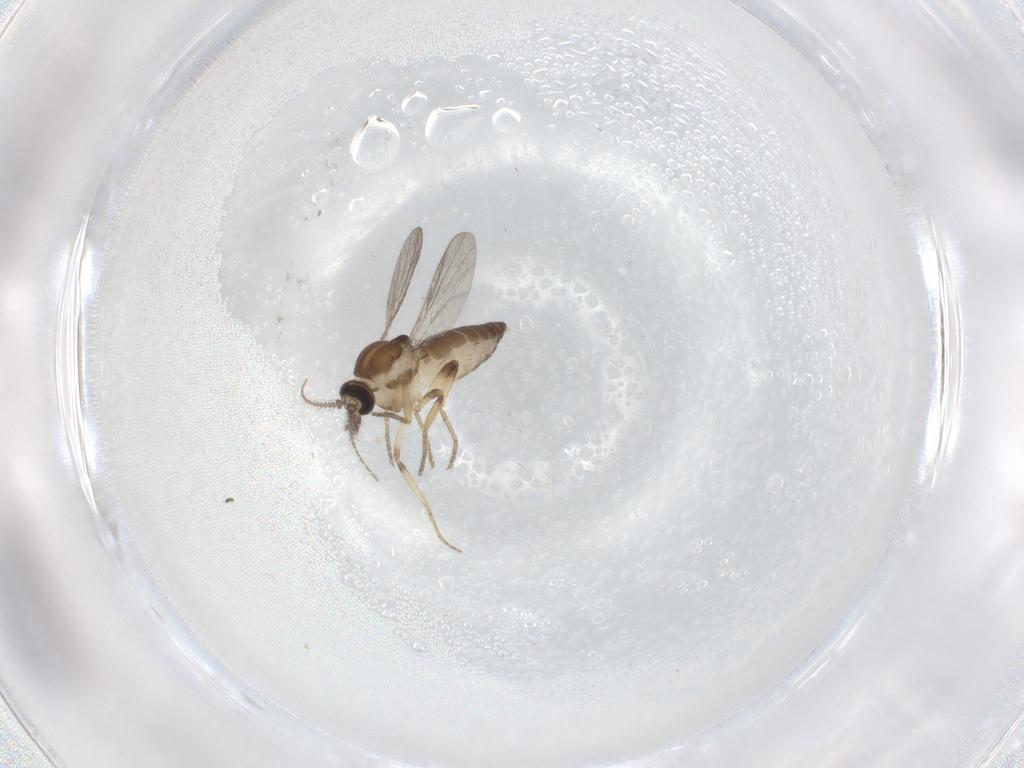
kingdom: Animalia
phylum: Arthropoda
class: Insecta
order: Diptera
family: Ceratopogonidae
